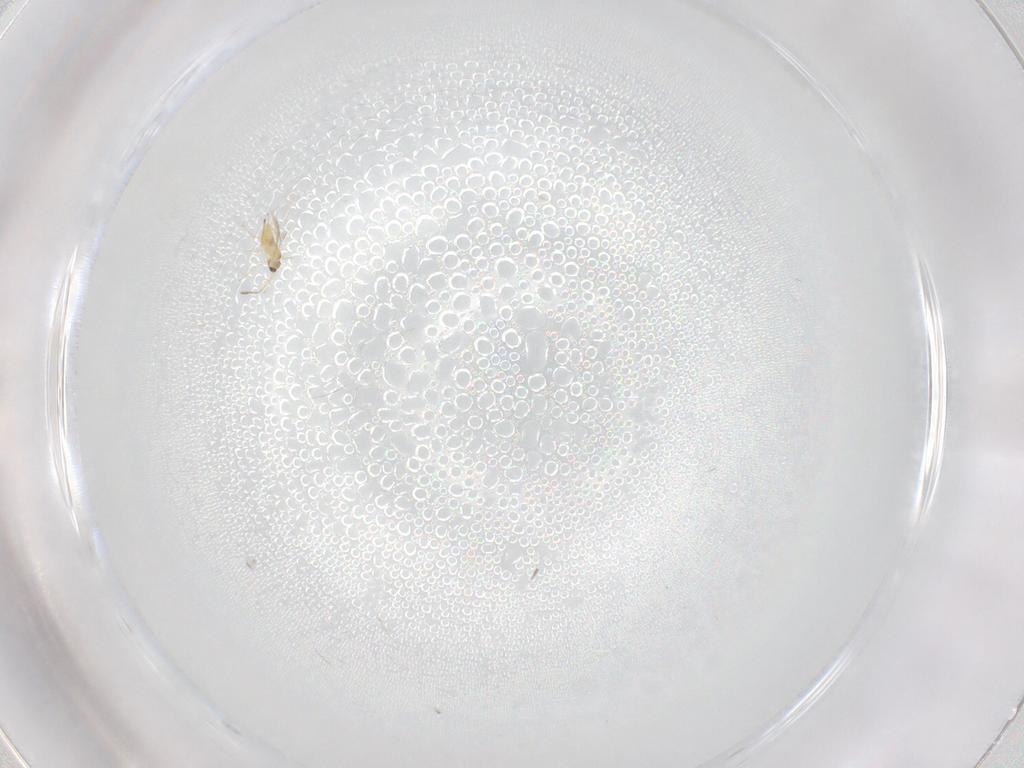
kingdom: Animalia
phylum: Arthropoda
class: Insecta
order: Hymenoptera
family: Mymaridae
